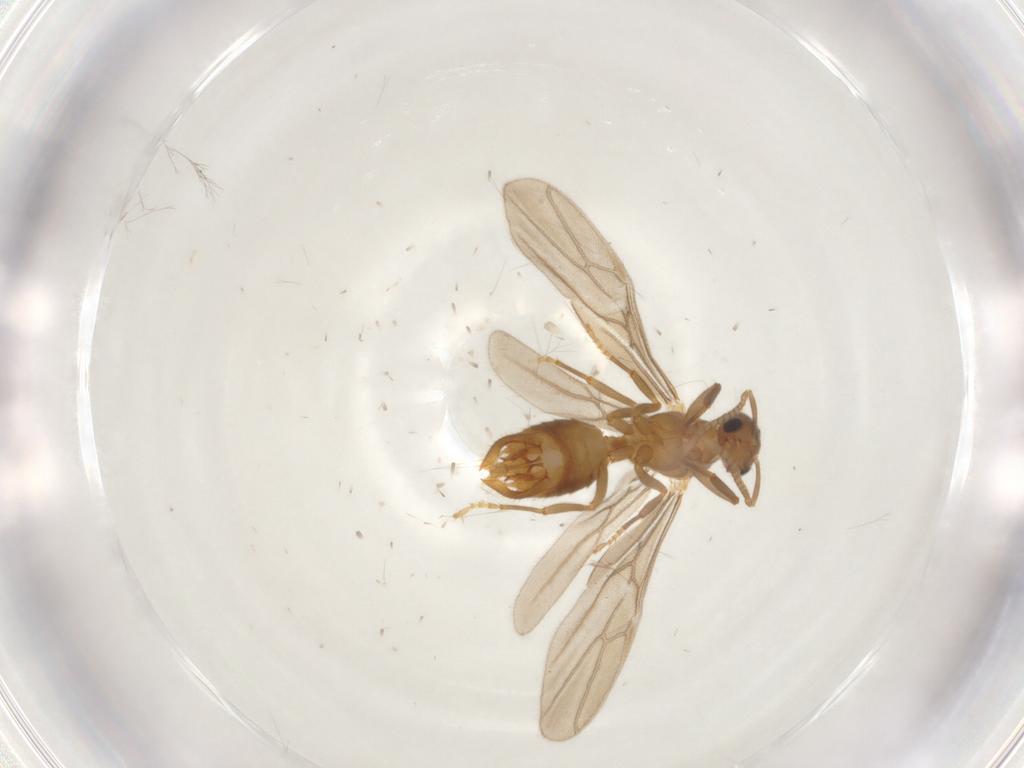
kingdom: Animalia
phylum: Arthropoda
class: Insecta
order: Hymenoptera
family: Formicidae
